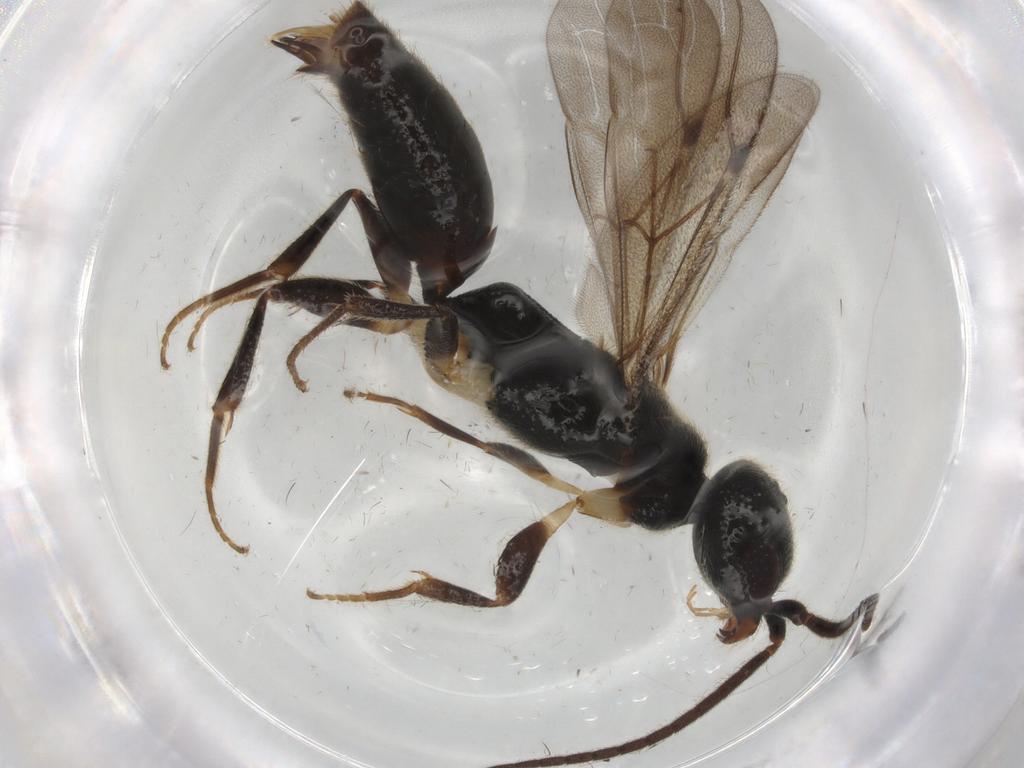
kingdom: Animalia
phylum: Arthropoda
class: Insecta
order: Hymenoptera
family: Bethylidae
